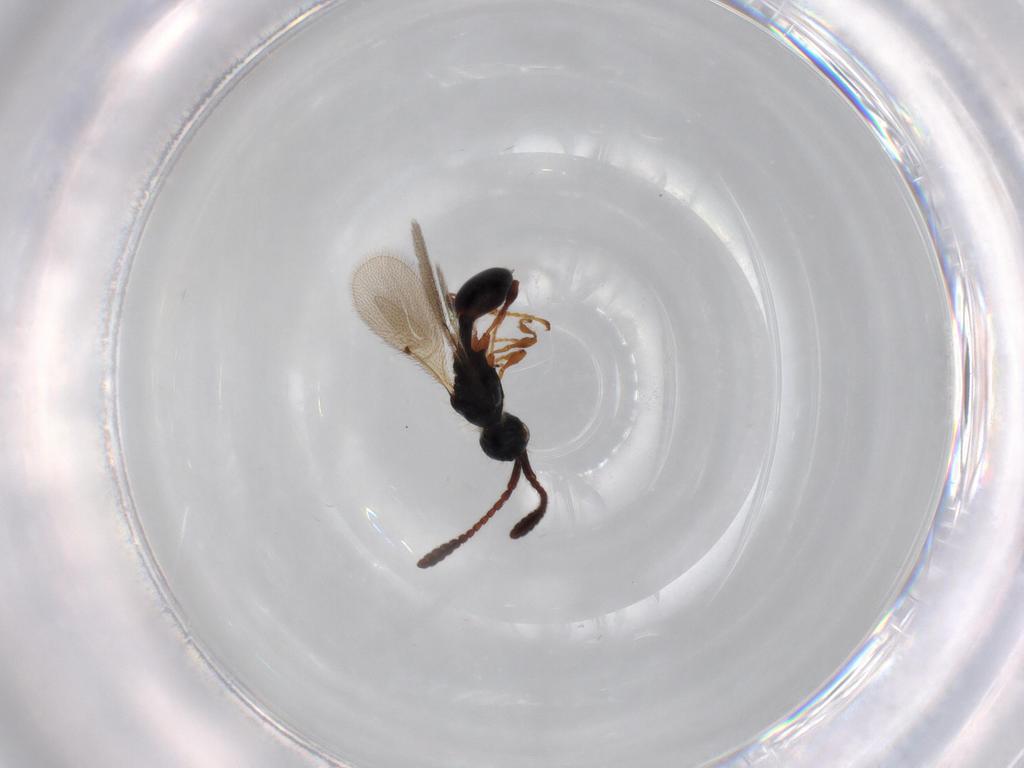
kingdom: Animalia
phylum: Arthropoda
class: Insecta
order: Hymenoptera
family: Diapriidae
